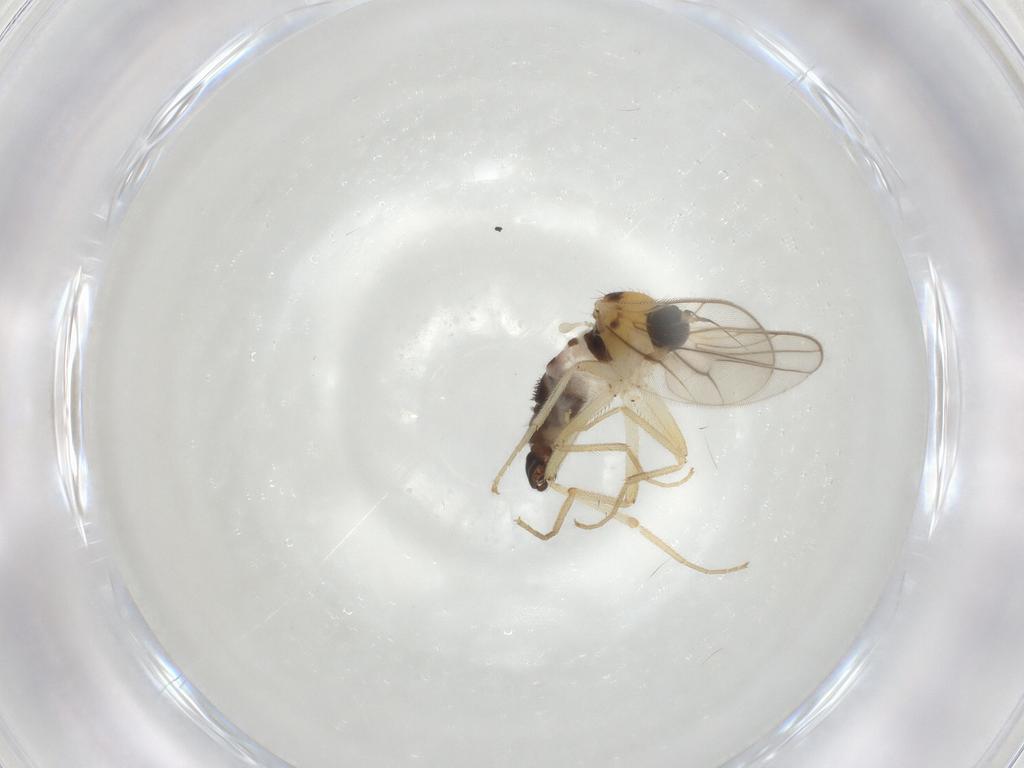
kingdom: Animalia
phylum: Arthropoda
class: Insecta
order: Diptera
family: Hybotidae
